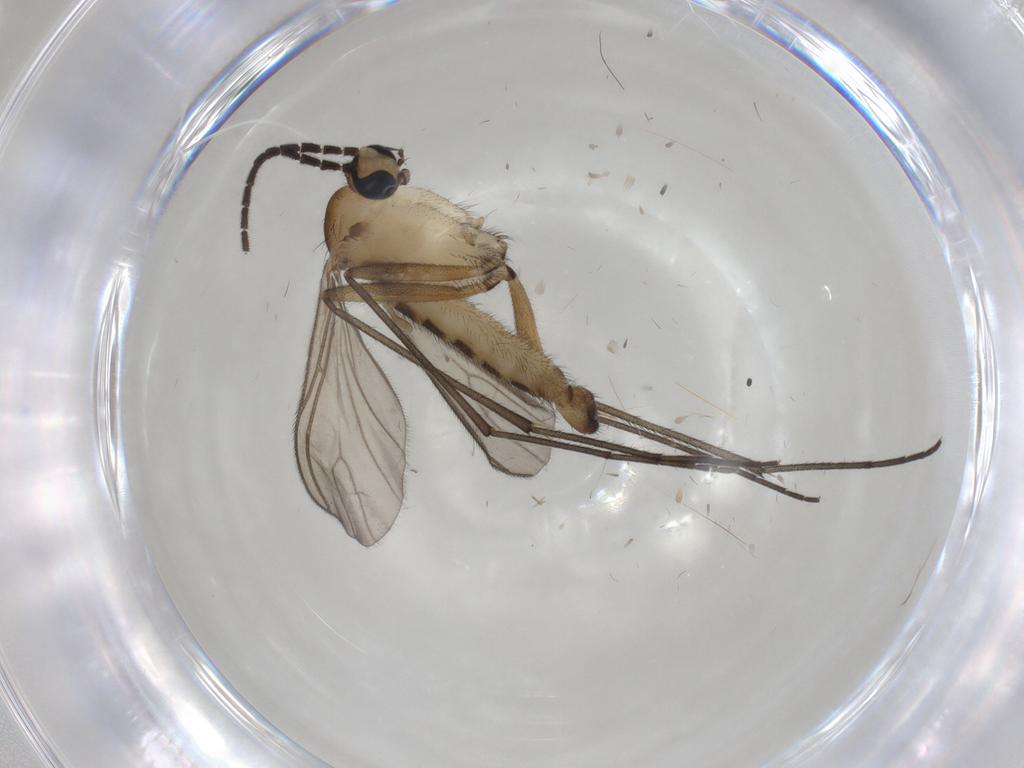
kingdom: Animalia
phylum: Arthropoda
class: Insecta
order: Diptera
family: Sciaridae
